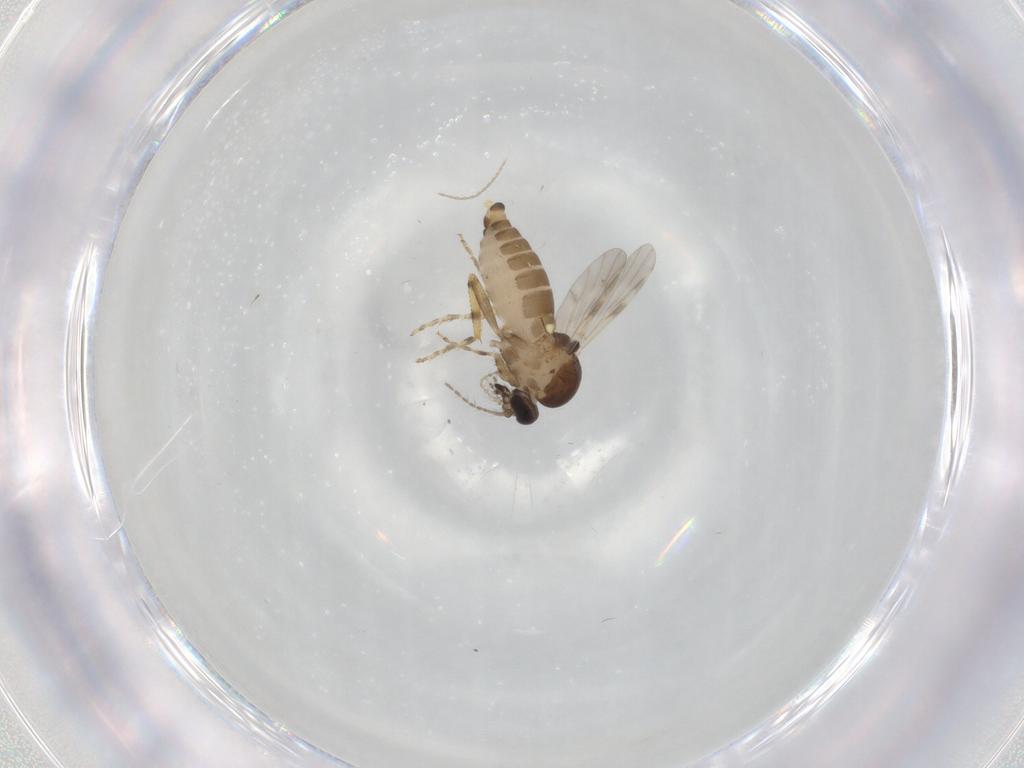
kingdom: Animalia
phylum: Arthropoda
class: Insecta
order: Diptera
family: Ceratopogonidae
